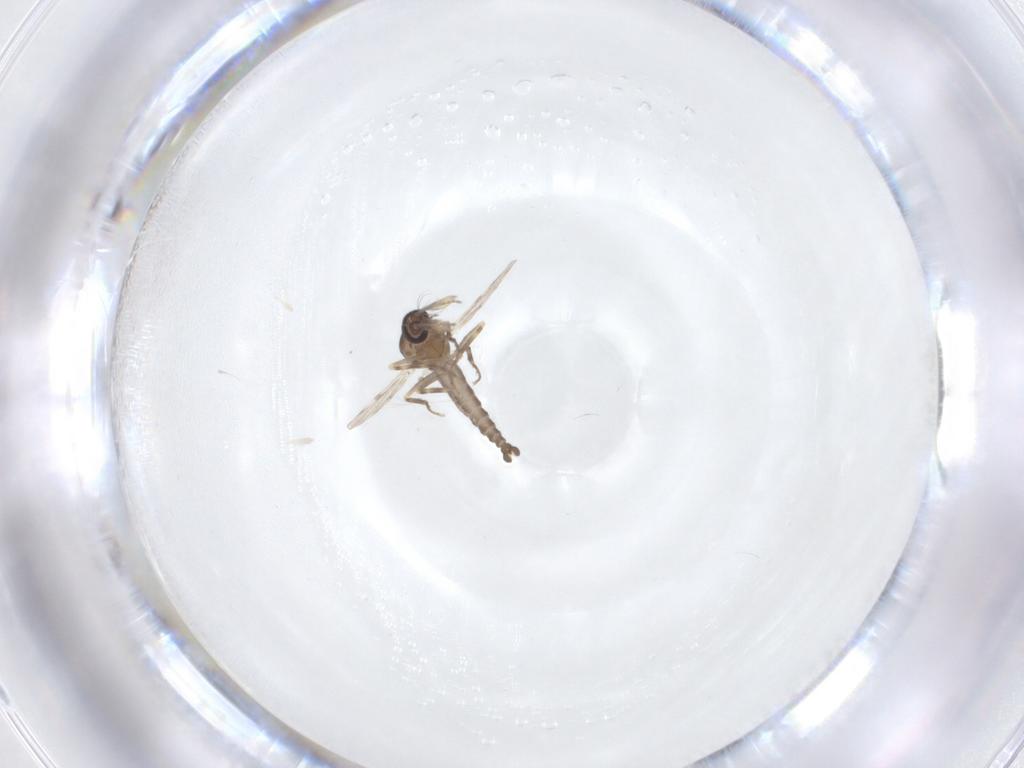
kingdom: Animalia
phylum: Arthropoda
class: Insecta
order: Diptera
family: Ceratopogonidae
